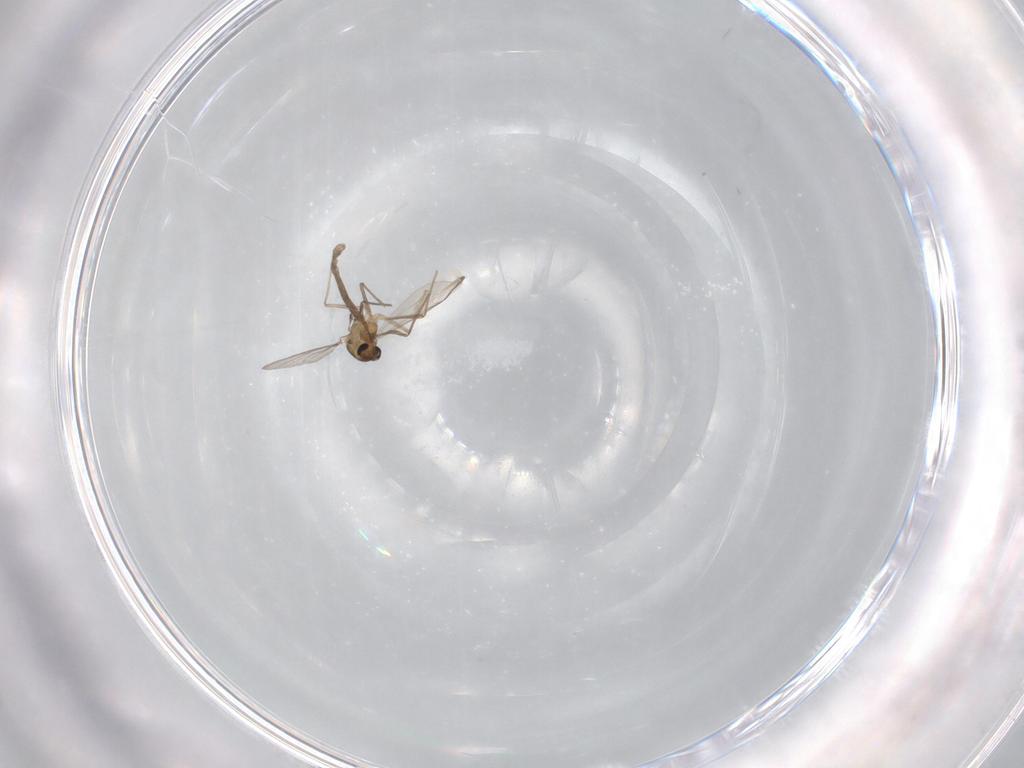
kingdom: Animalia
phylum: Arthropoda
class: Insecta
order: Diptera
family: Chironomidae
